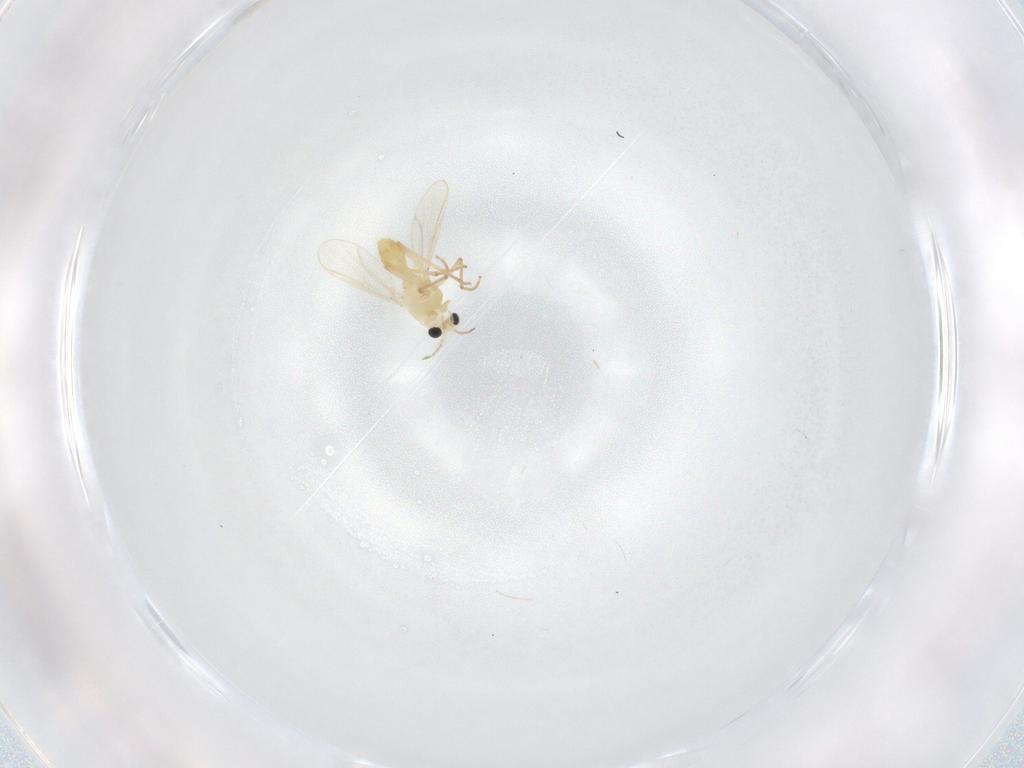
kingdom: Animalia
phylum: Arthropoda
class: Insecta
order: Diptera
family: Chironomidae
